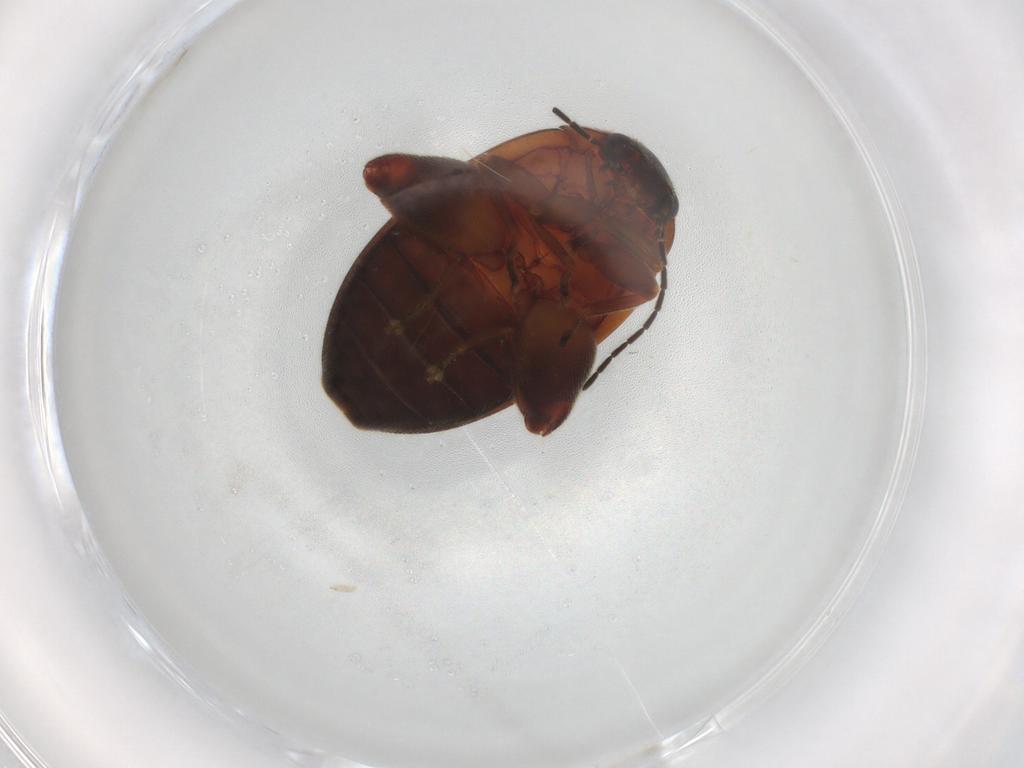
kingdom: Animalia
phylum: Arthropoda
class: Insecta
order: Coleoptera
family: Scirtidae
